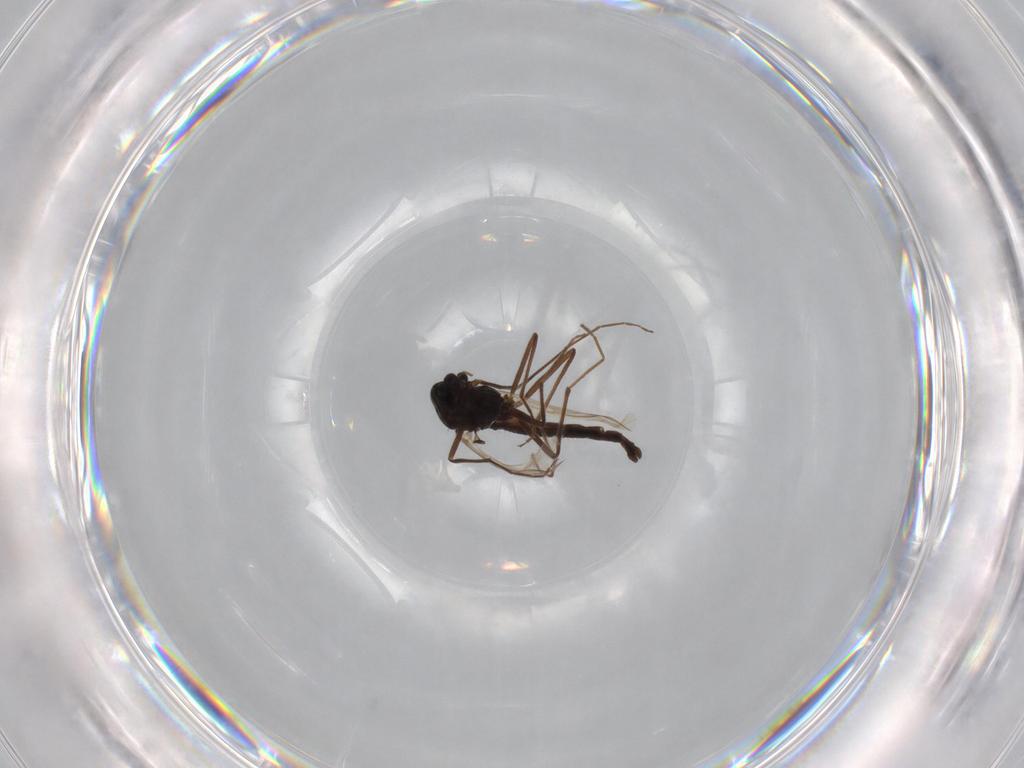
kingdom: Animalia
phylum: Arthropoda
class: Insecta
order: Diptera
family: Chironomidae
